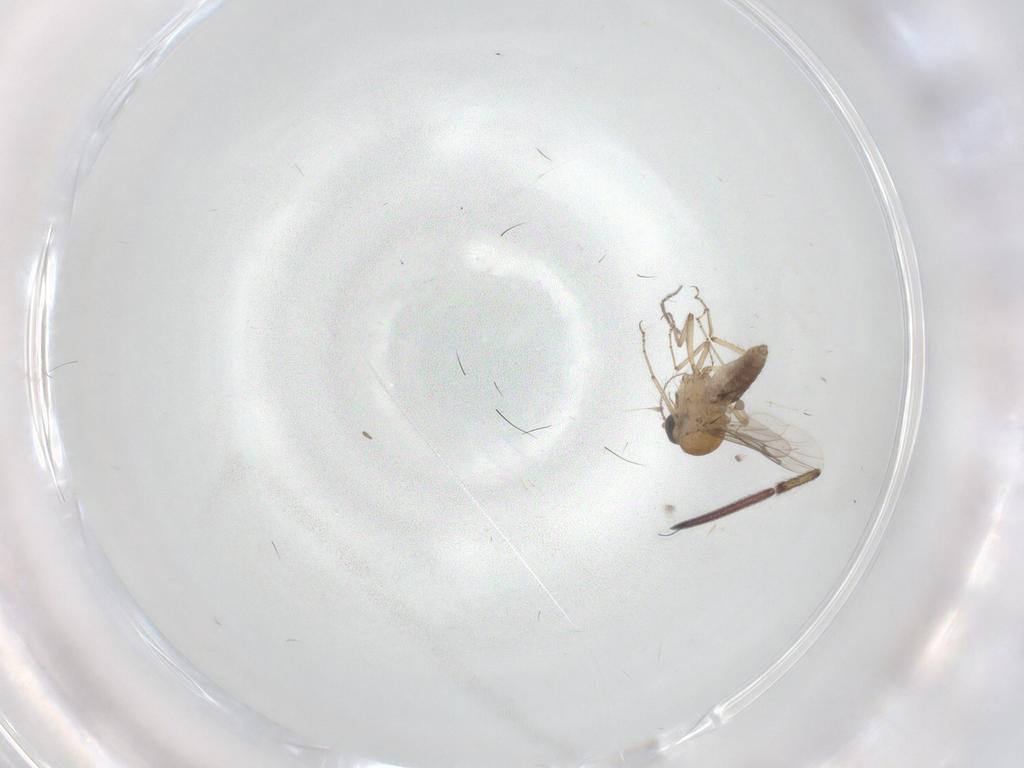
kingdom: Animalia
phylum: Arthropoda
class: Insecta
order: Diptera
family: Ceratopogonidae
